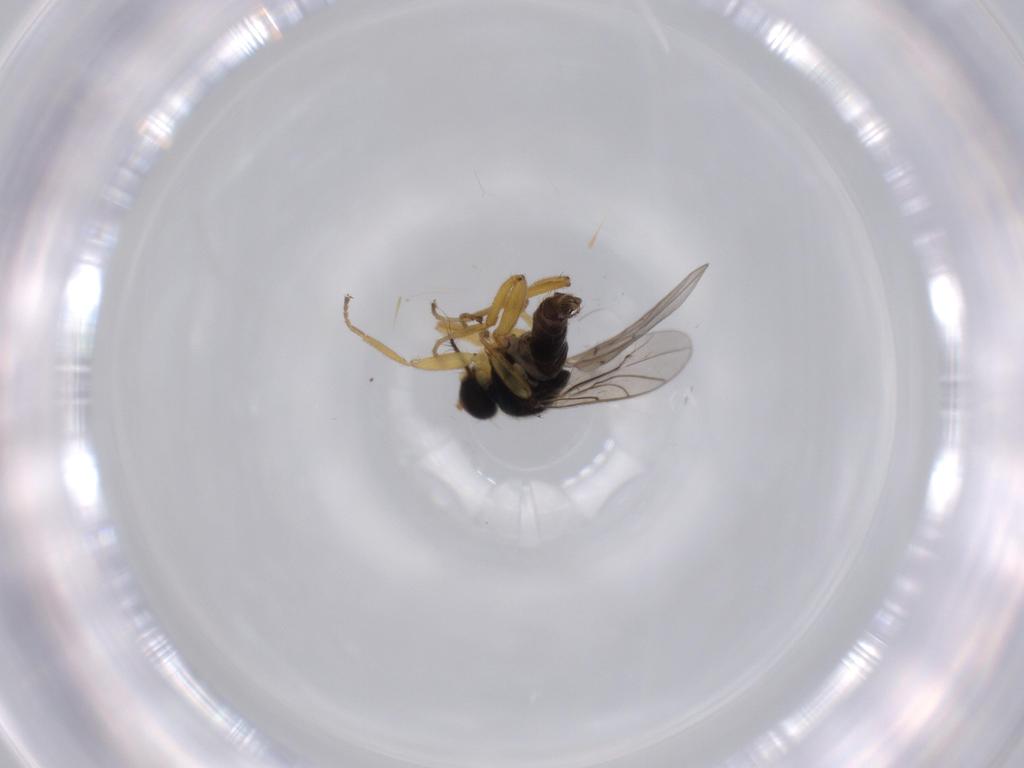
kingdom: Animalia
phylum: Arthropoda
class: Insecta
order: Diptera
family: Hybotidae
